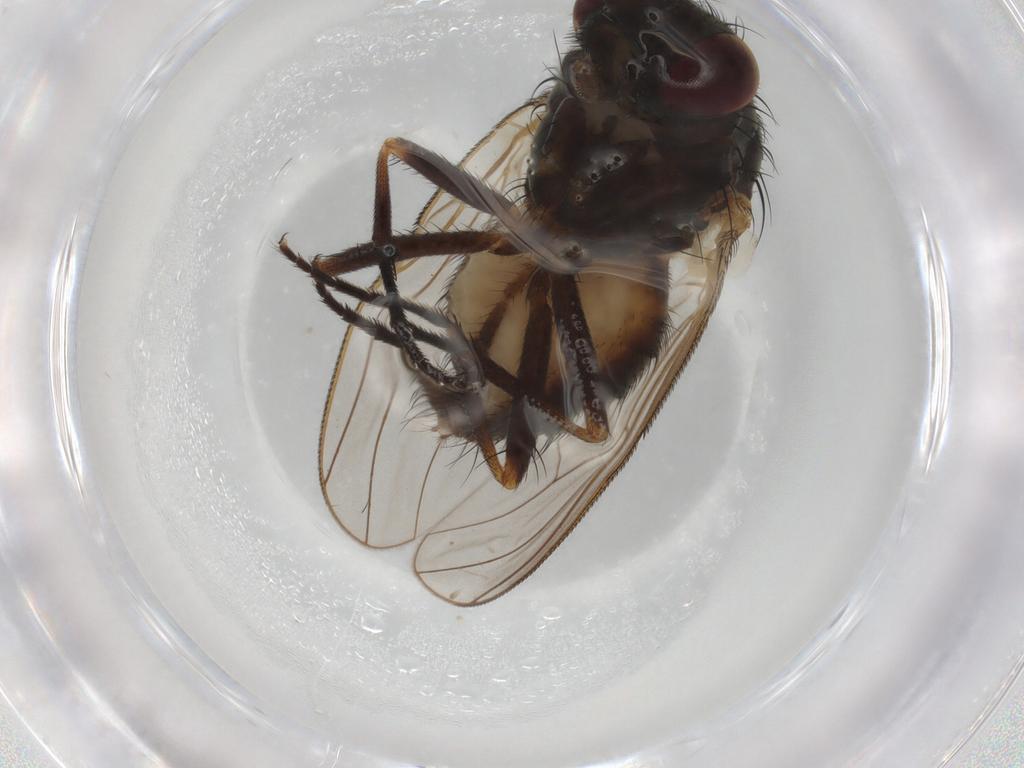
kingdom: Animalia
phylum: Arthropoda
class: Insecta
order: Diptera
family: Fannia
